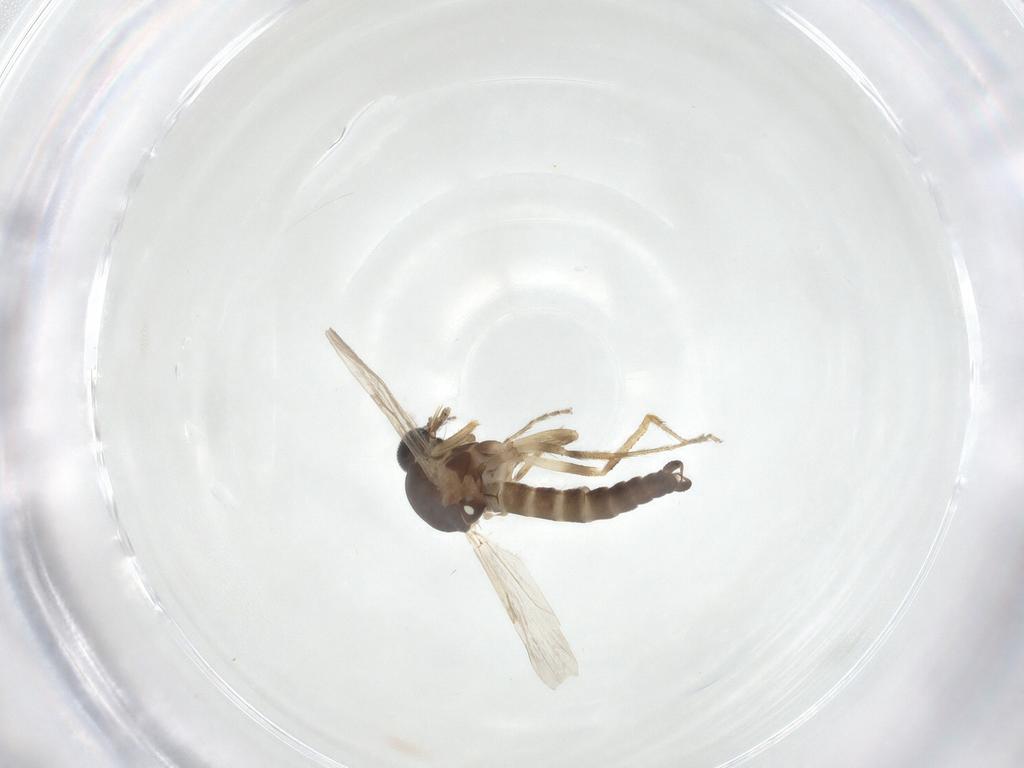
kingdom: Animalia
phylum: Arthropoda
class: Insecta
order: Diptera
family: Ceratopogonidae
